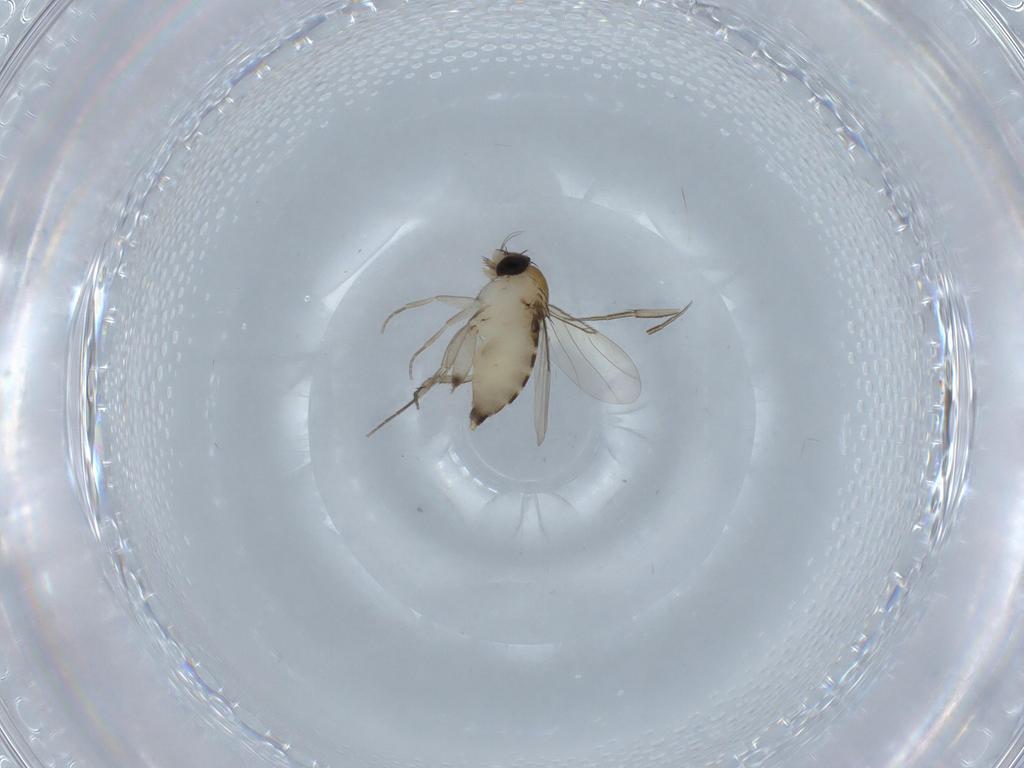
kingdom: Animalia
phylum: Arthropoda
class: Insecta
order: Diptera
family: Phoridae
